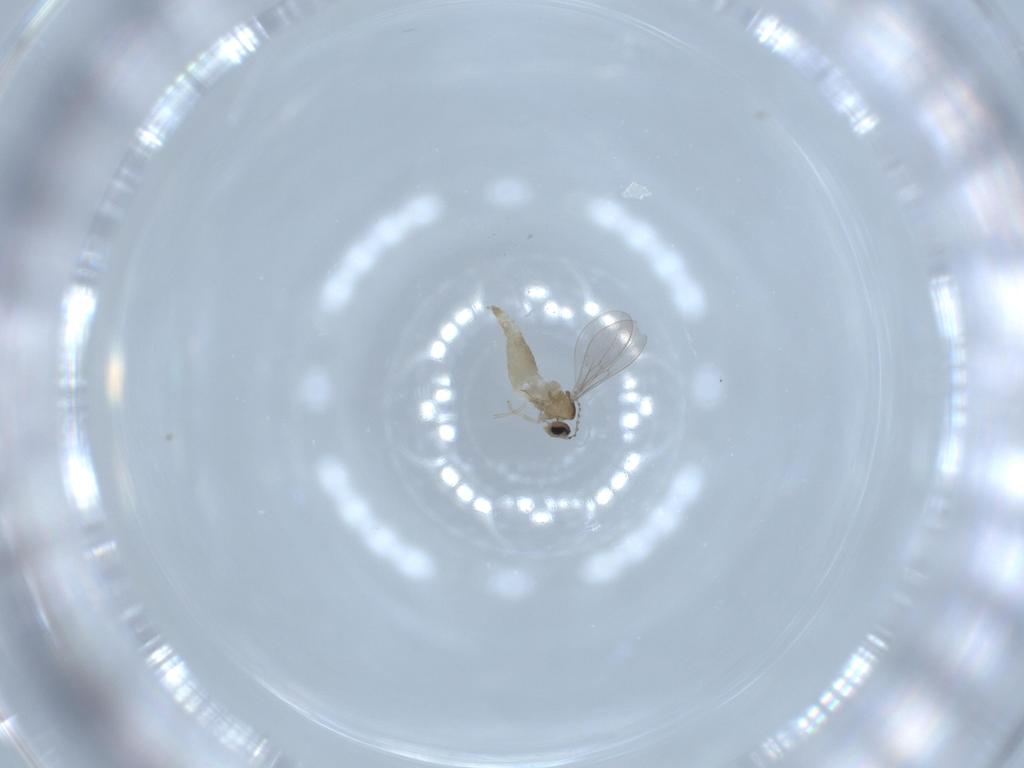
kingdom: Animalia
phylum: Arthropoda
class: Insecta
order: Diptera
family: Cecidomyiidae
